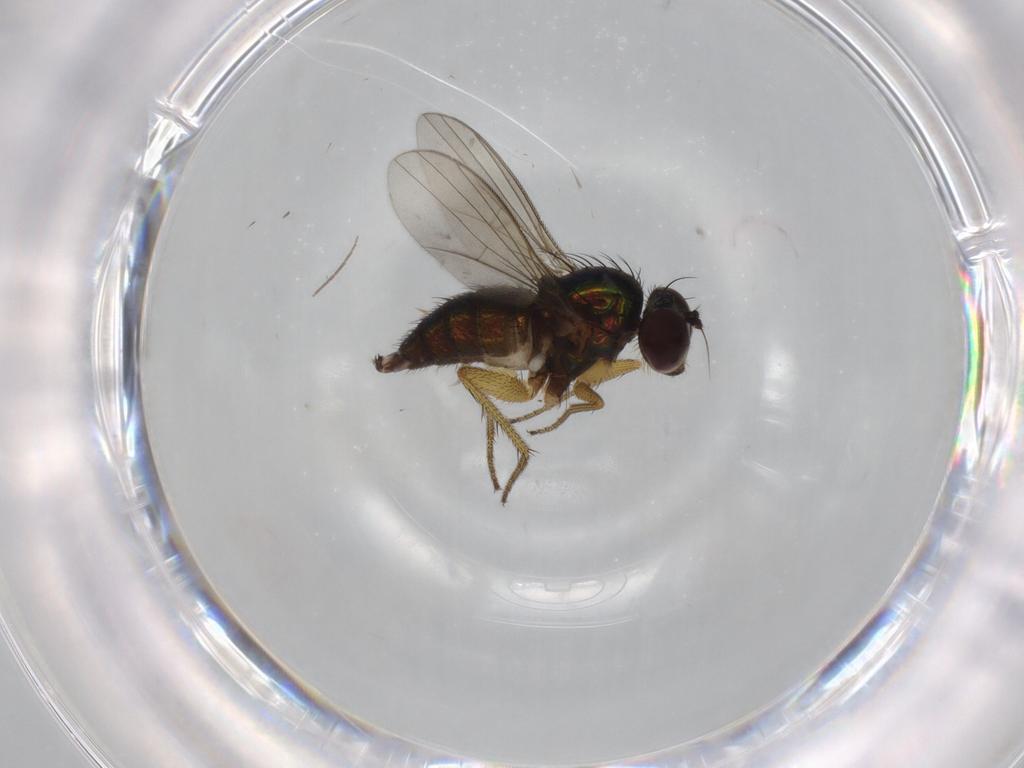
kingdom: Animalia
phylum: Arthropoda
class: Insecta
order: Diptera
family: Dolichopodidae
